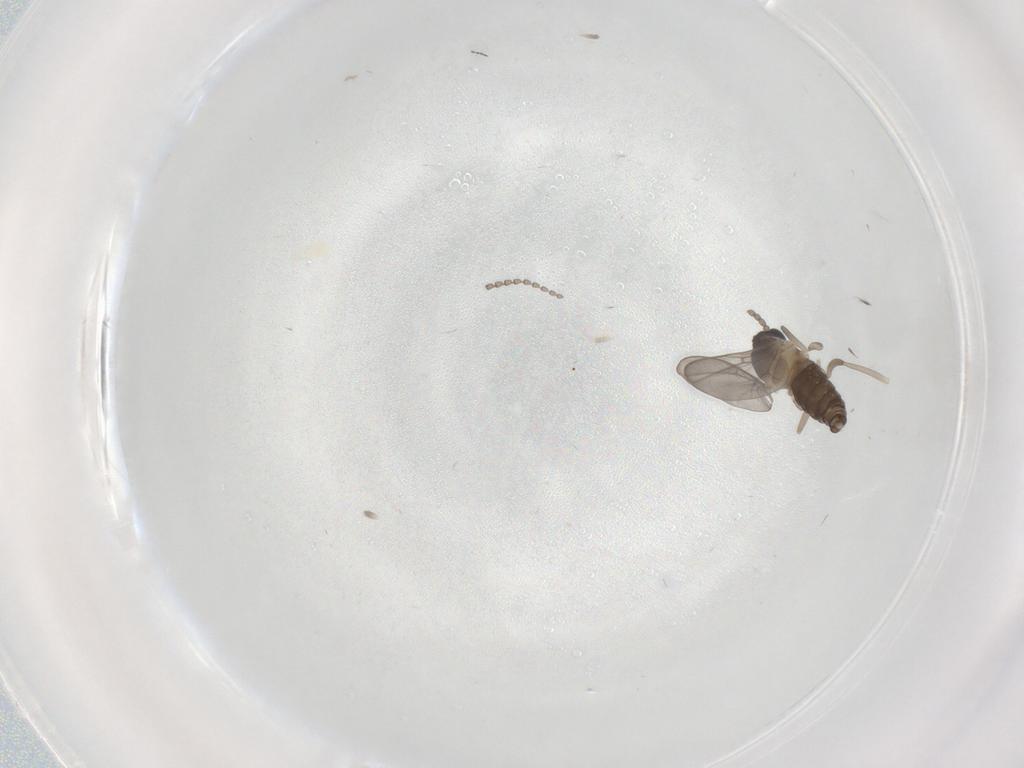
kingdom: Animalia
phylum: Arthropoda
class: Insecta
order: Diptera
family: Cecidomyiidae
